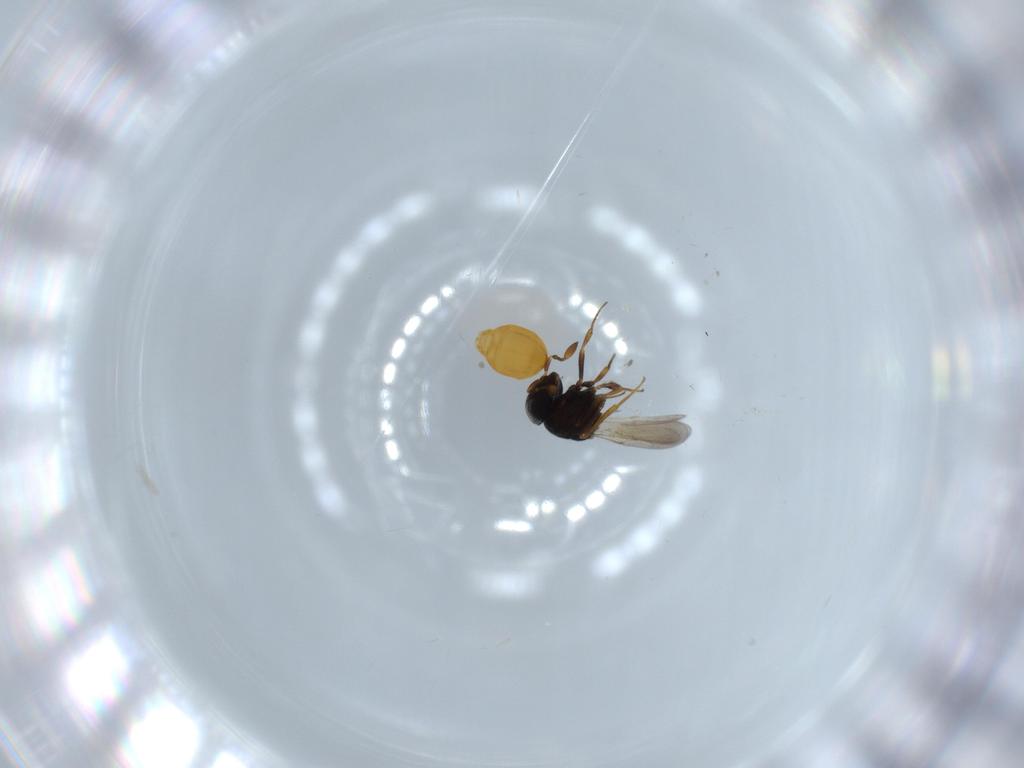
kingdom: Animalia
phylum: Arthropoda
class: Insecta
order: Hymenoptera
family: Scelionidae
